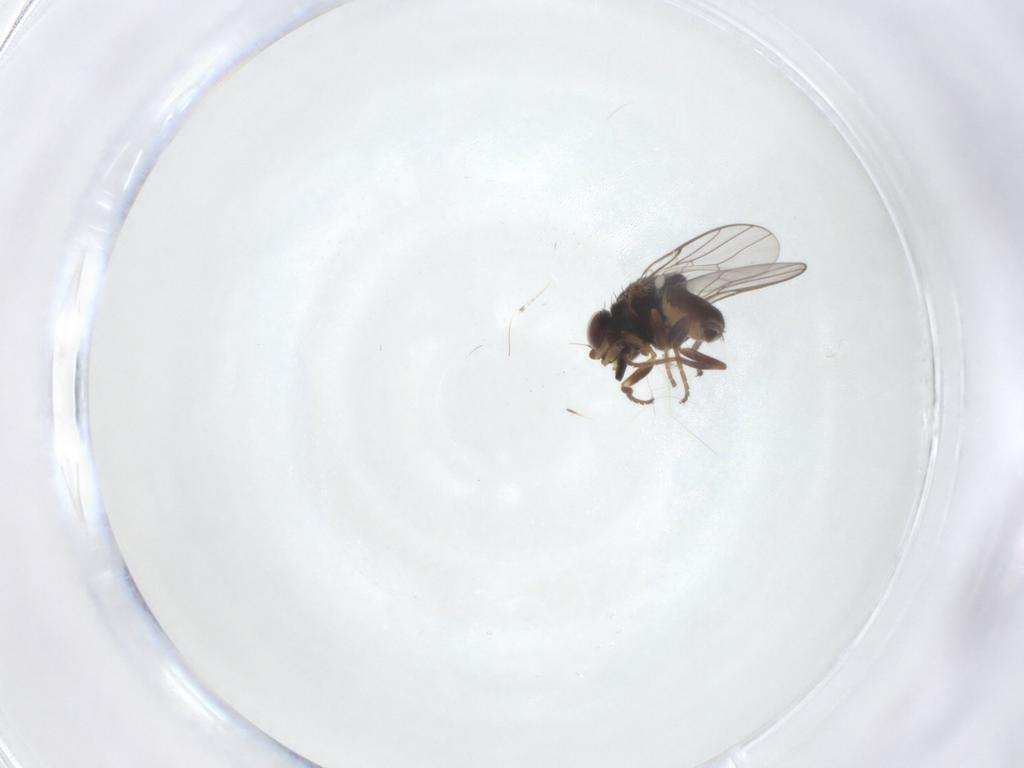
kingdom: Animalia
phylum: Arthropoda
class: Insecta
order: Diptera
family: Chloropidae
